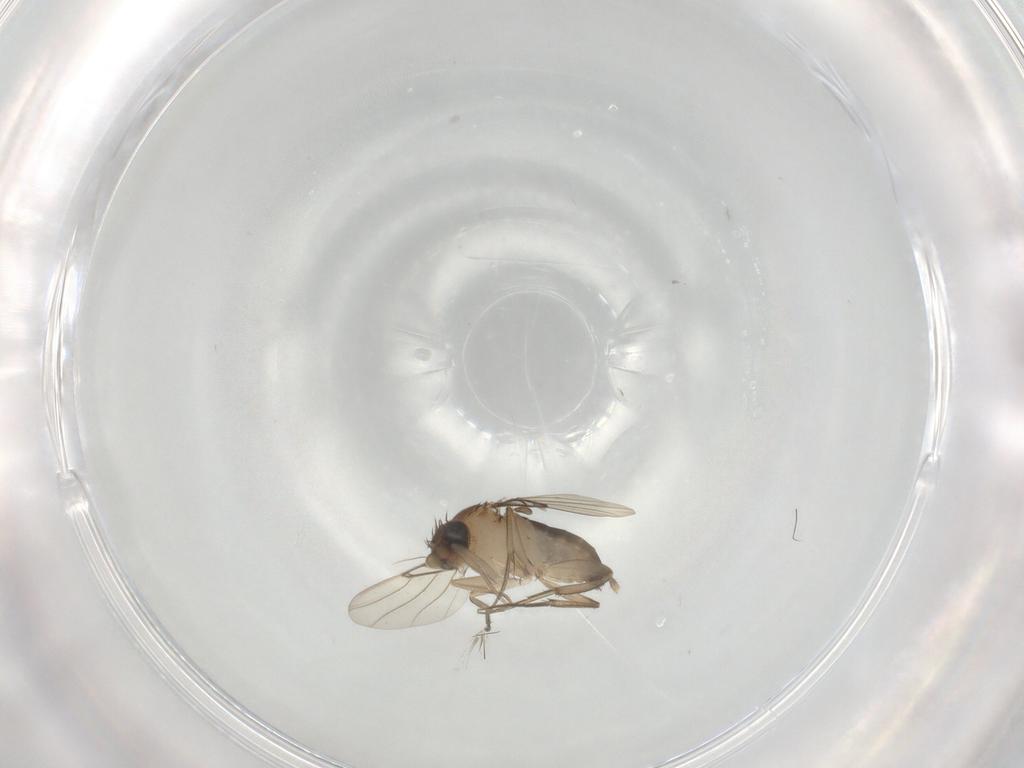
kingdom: Animalia
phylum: Arthropoda
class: Insecta
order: Diptera
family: Phoridae
